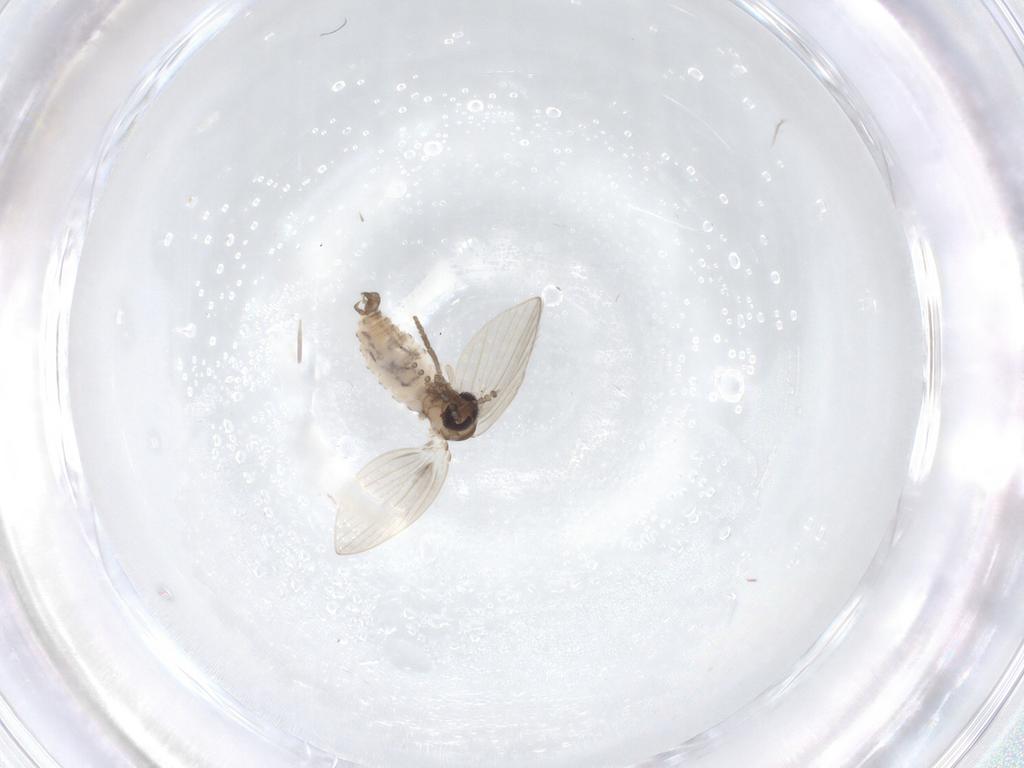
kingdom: Animalia
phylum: Arthropoda
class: Insecta
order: Diptera
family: Psychodidae
